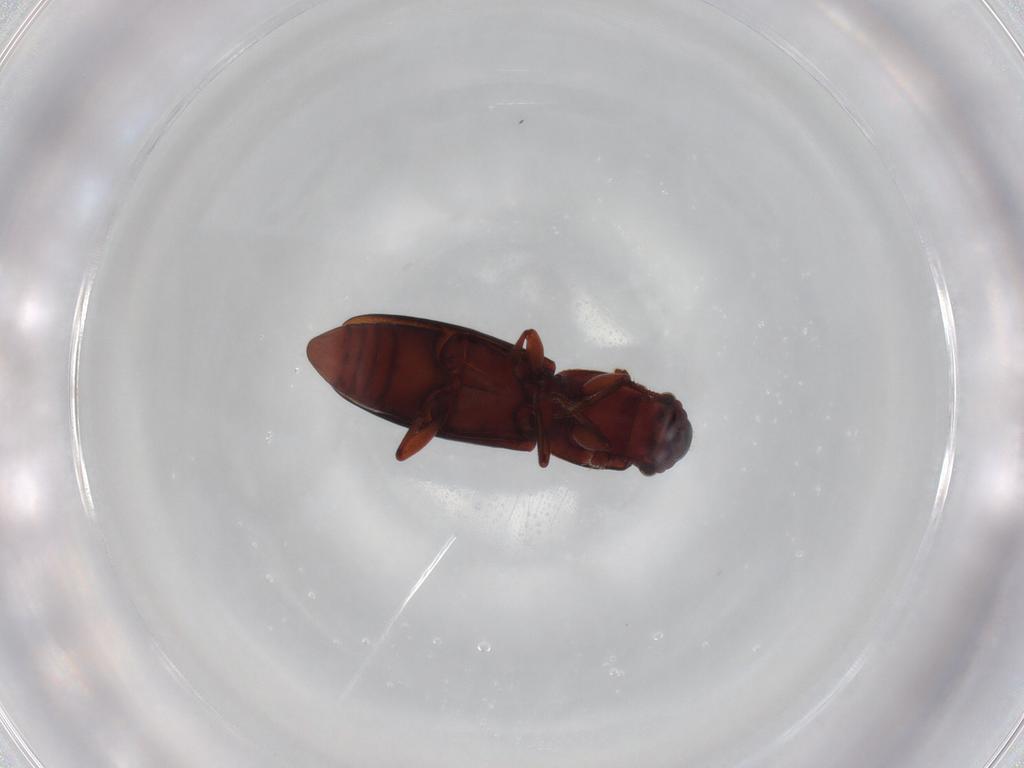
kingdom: Animalia
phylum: Arthropoda
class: Insecta
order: Coleoptera
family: Monotomidae
